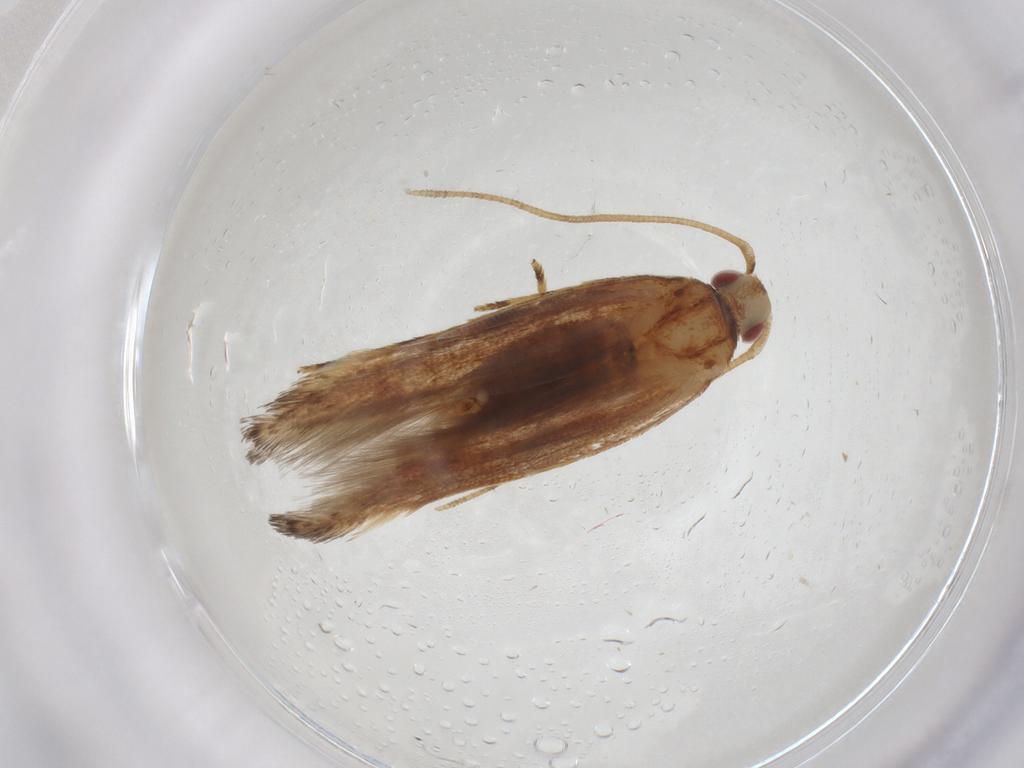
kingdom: Animalia
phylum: Arthropoda
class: Insecta
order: Lepidoptera
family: Cosmopterigidae
